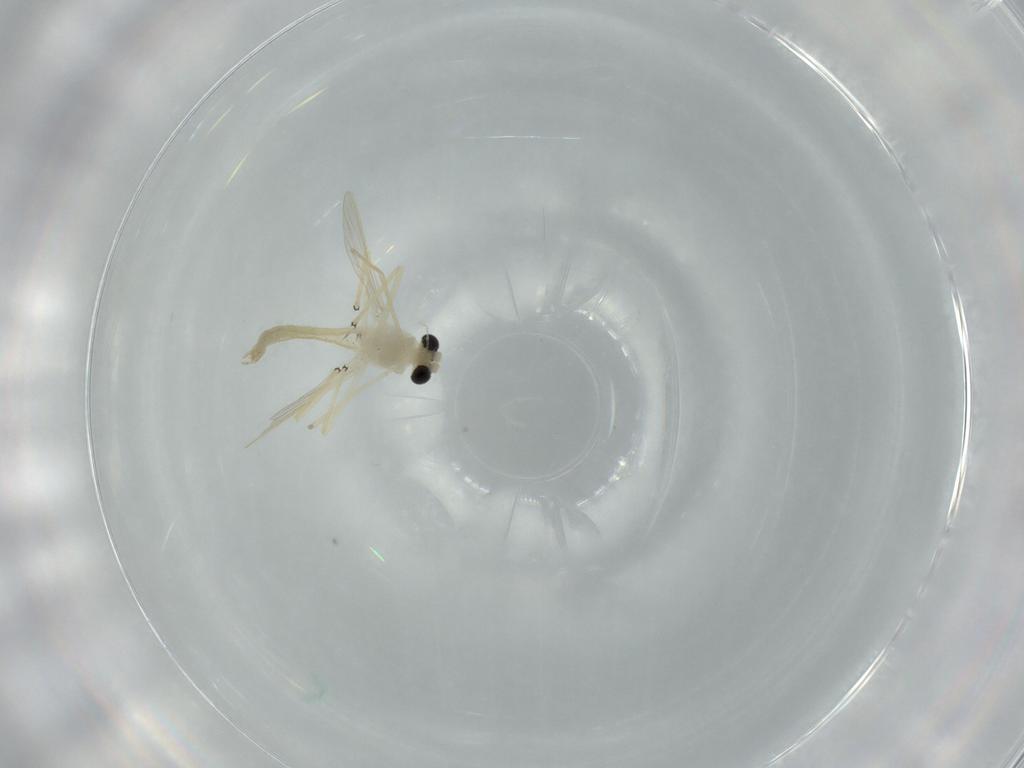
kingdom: Animalia
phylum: Arthropoda
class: Insecta
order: Diptera
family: Chironomidae
